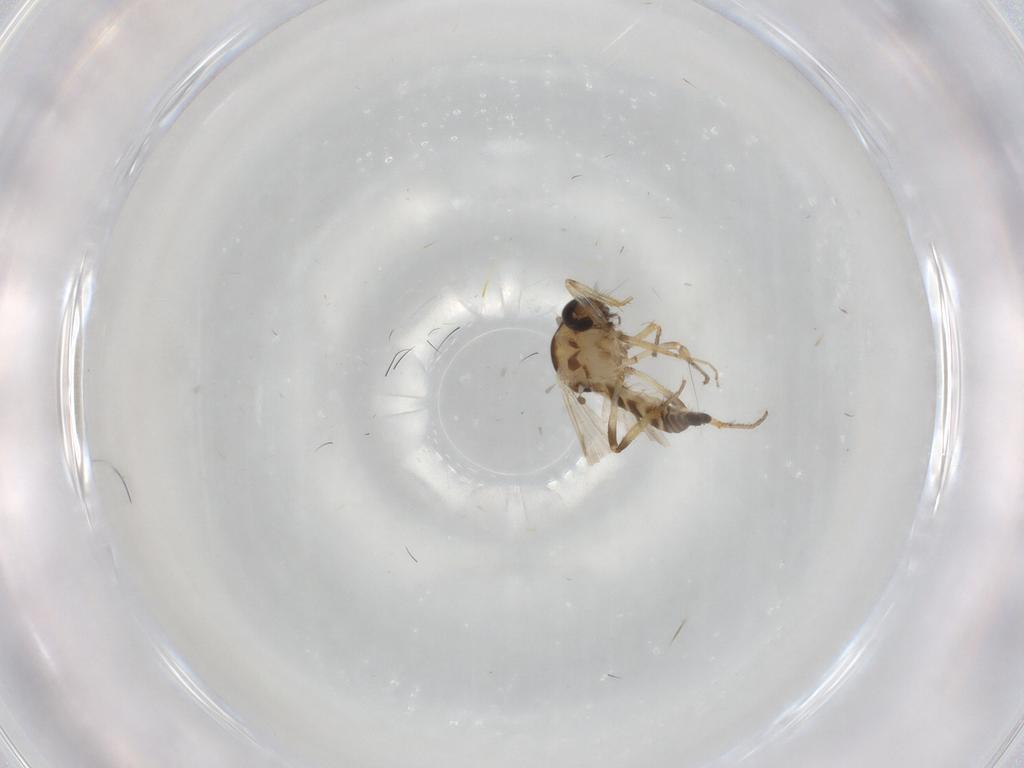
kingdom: Animalia
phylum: Arthropoda
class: Insecta
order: Diptera
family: Ceratopogonidae
